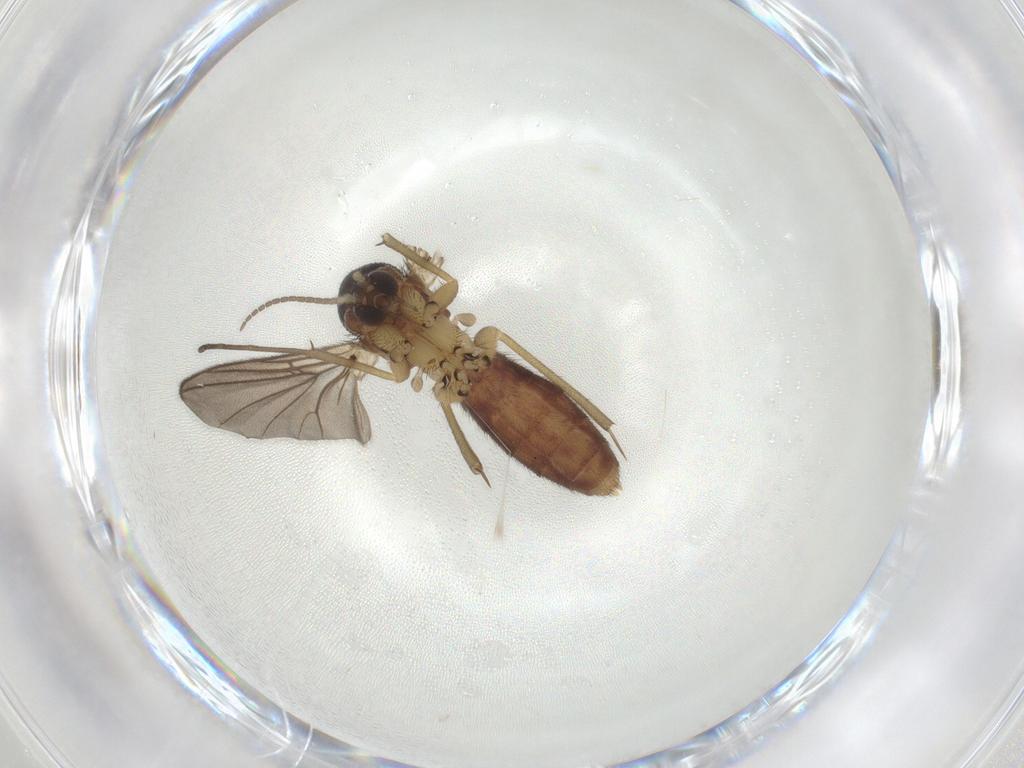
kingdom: Animalia
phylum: Arthropoda
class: Insecta
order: Diptera
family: Mycetophilidae
